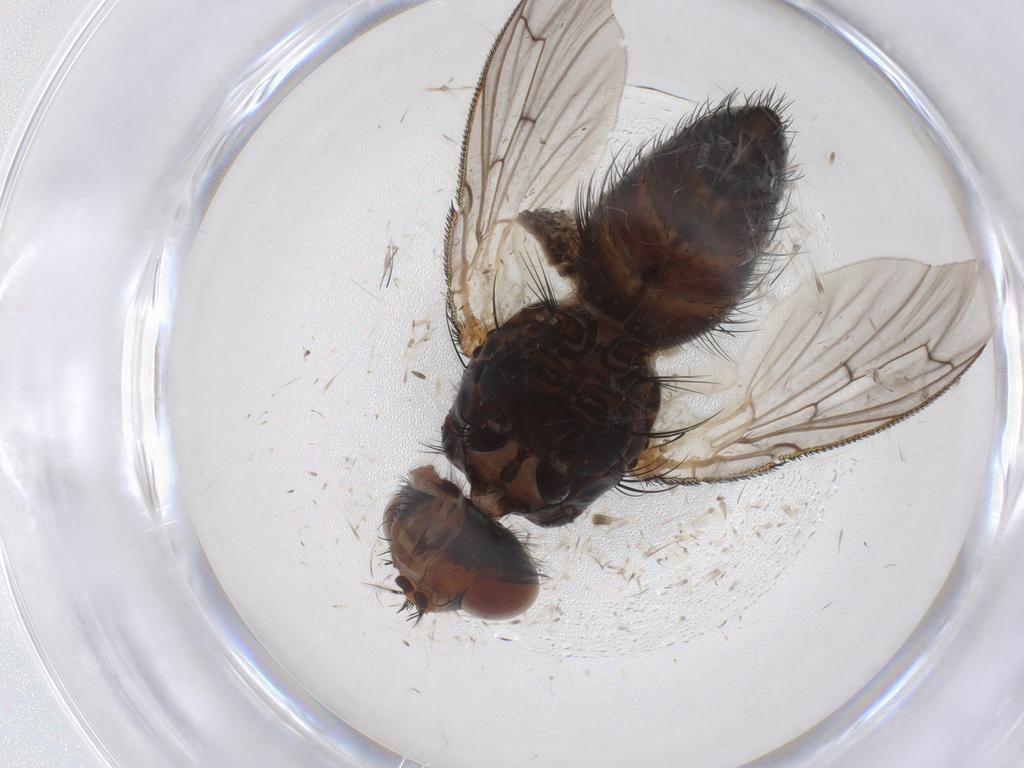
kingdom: Animalia
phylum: Arthropoda
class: Insecta
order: Diptera
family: Tachinidae
